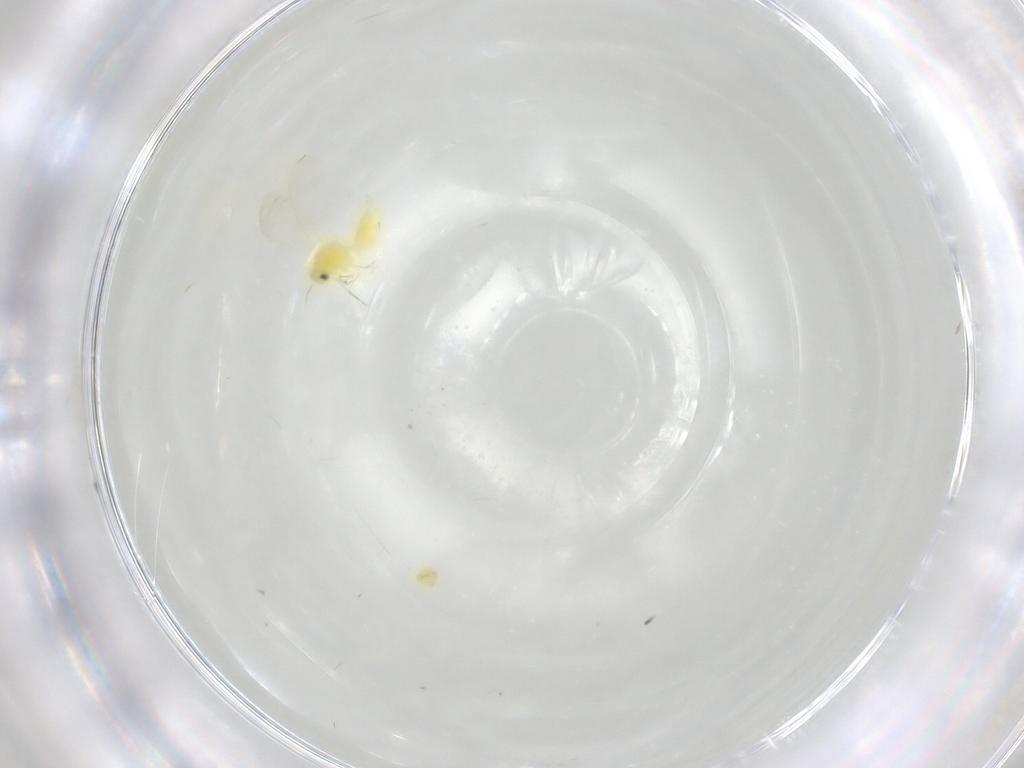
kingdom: Animalia
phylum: Arthropoda
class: Insecta
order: Hemiptera
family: Aleyrodidae
